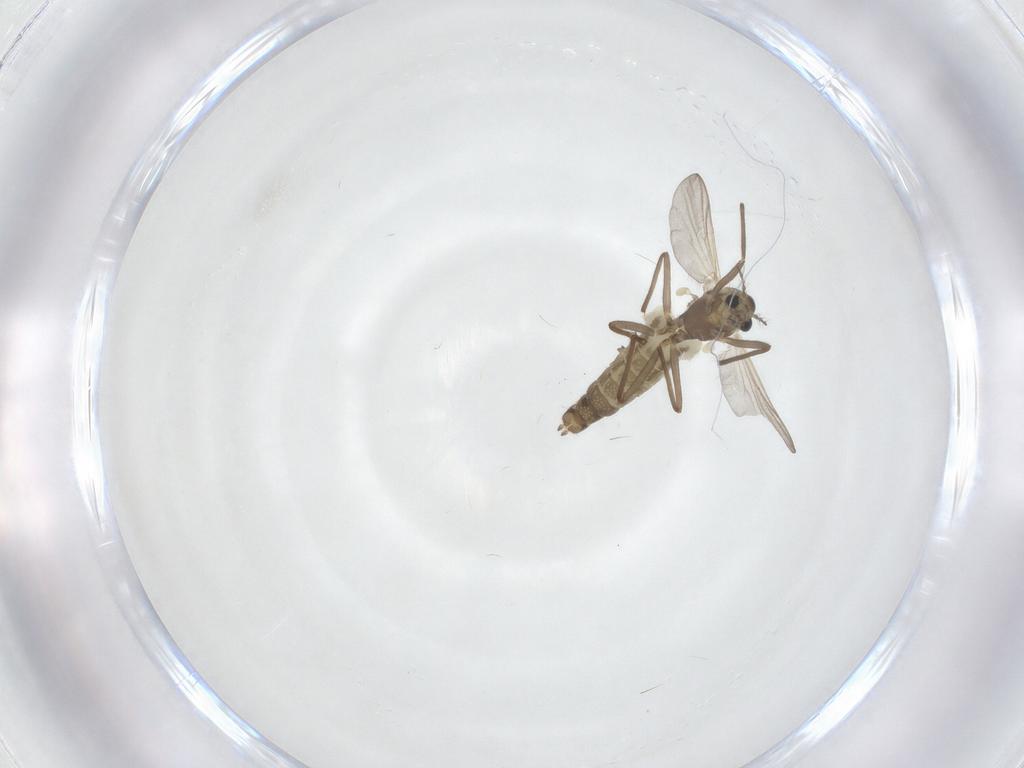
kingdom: Animalia
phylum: Arthropoda
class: Insecta
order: Diptera
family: Chironomidae
